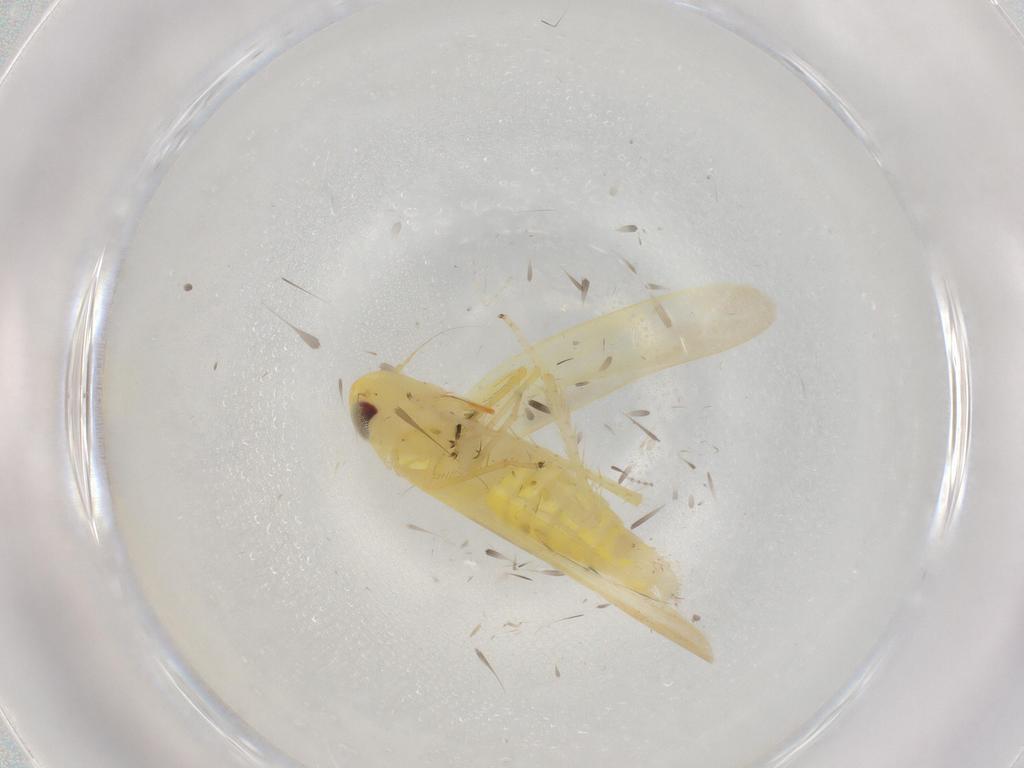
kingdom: Animalia
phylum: Arthropoda
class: Insecta
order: Hemiptera
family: Cicadellidae
